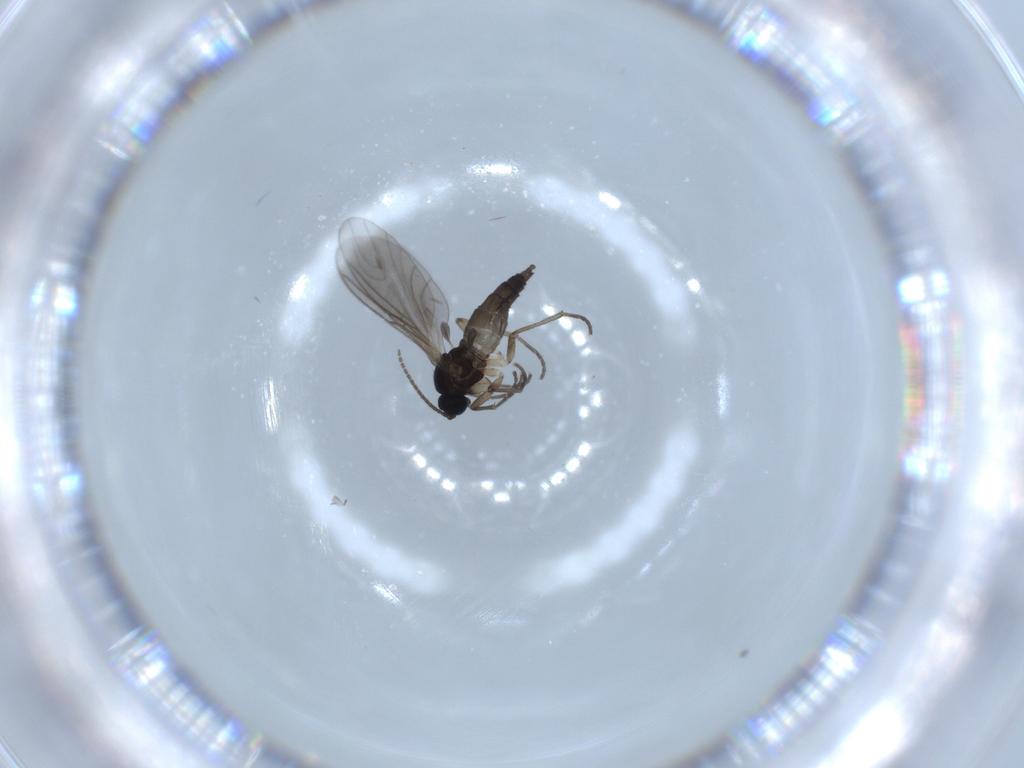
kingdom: Animalia
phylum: Arthropoda
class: Insecta
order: Diptera
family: Sciaridae
